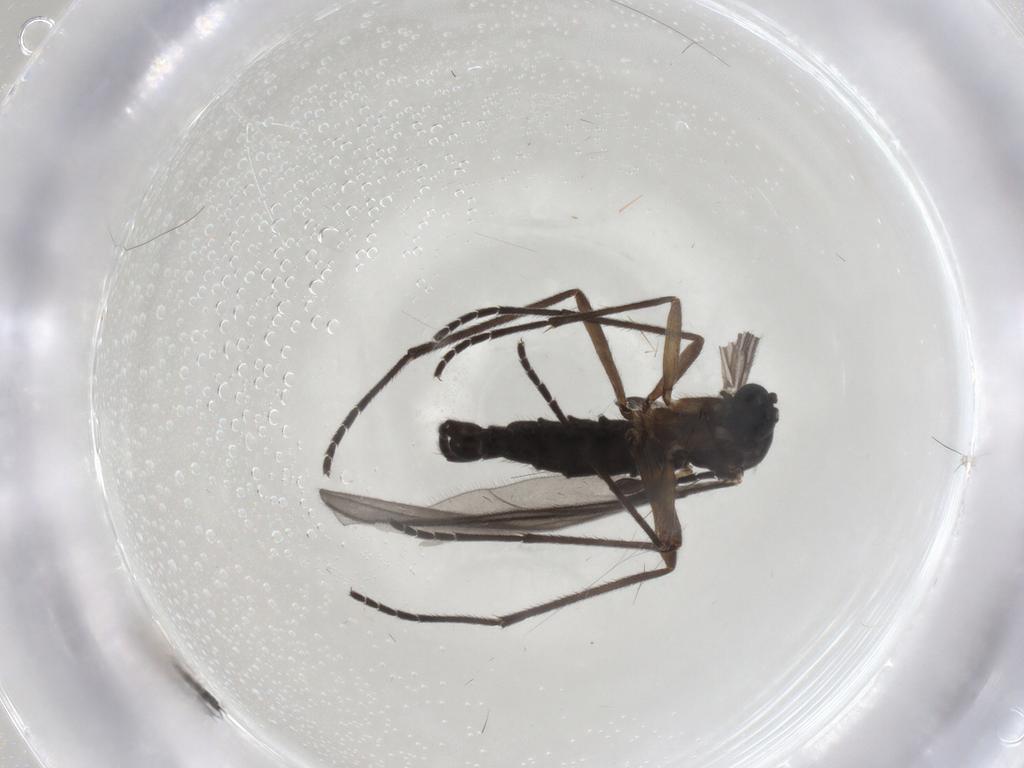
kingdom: Animalia
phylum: Arthropoda
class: Insecta
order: Diptera
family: Sciaridae
